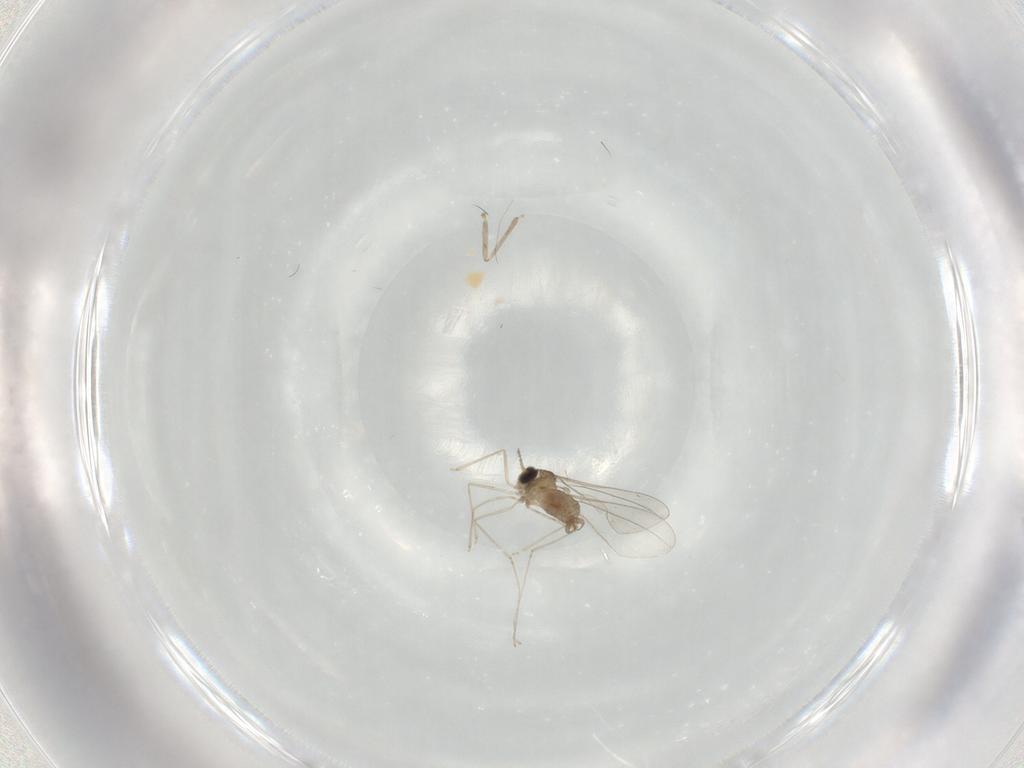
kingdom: Animalia
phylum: Arthropoda
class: Insecta
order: Diptera
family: Cecidomyiidae
